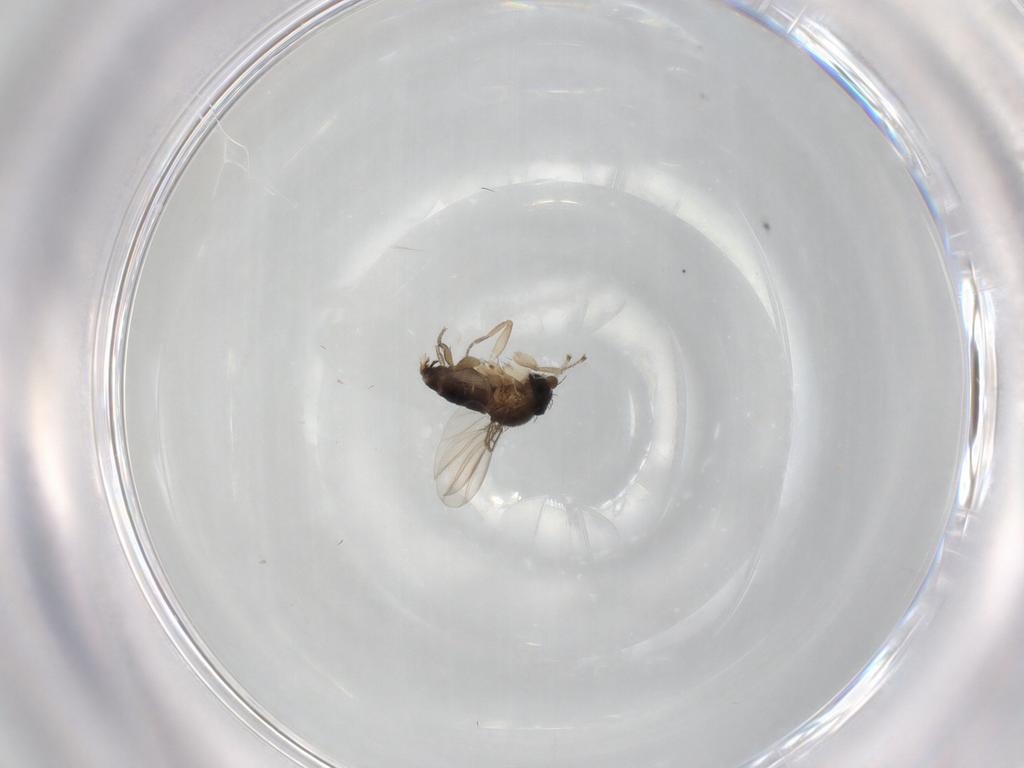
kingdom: Animalia
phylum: Arthropoda
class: Insecta
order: Diptera
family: Phoridae
